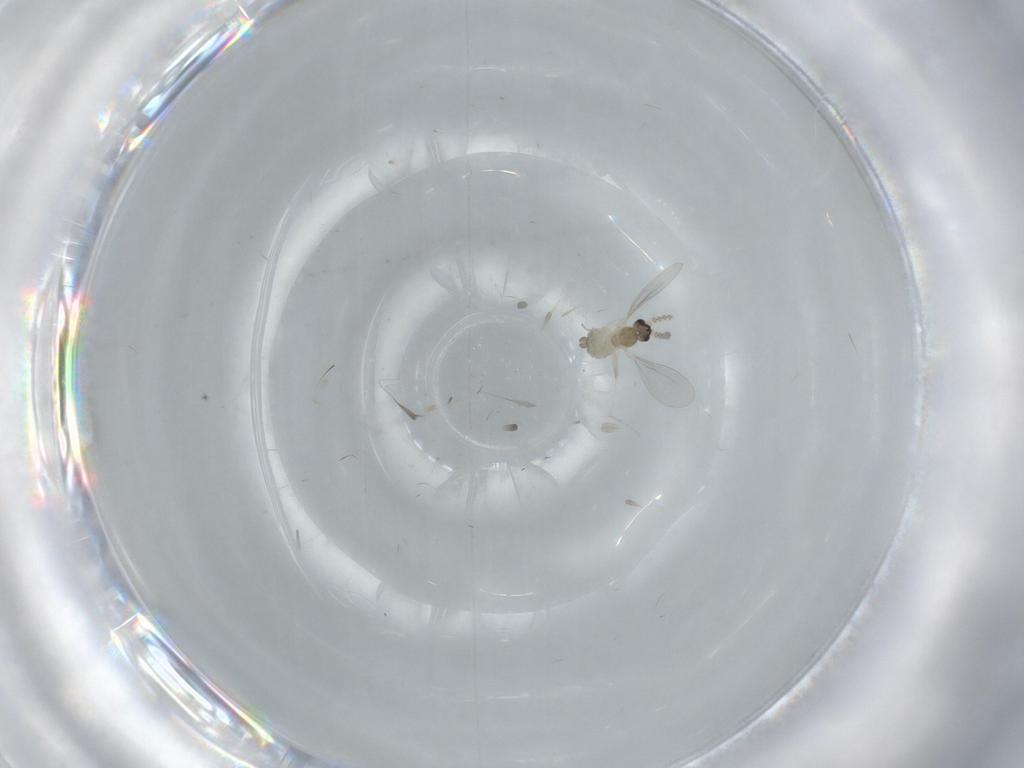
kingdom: Animalia
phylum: Arthropoda
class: Insecta
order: Diptera
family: Cecidomyiidae
